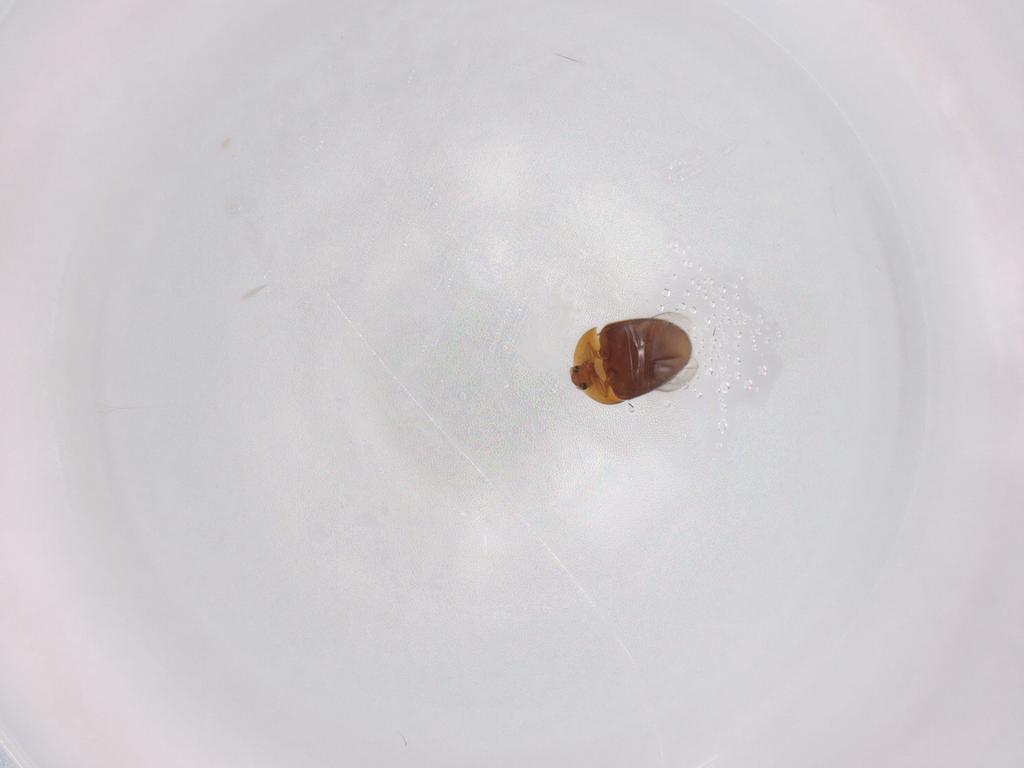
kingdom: Animalia
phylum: Arthropoda
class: Insecta
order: Coleoptera
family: Corylophidae
